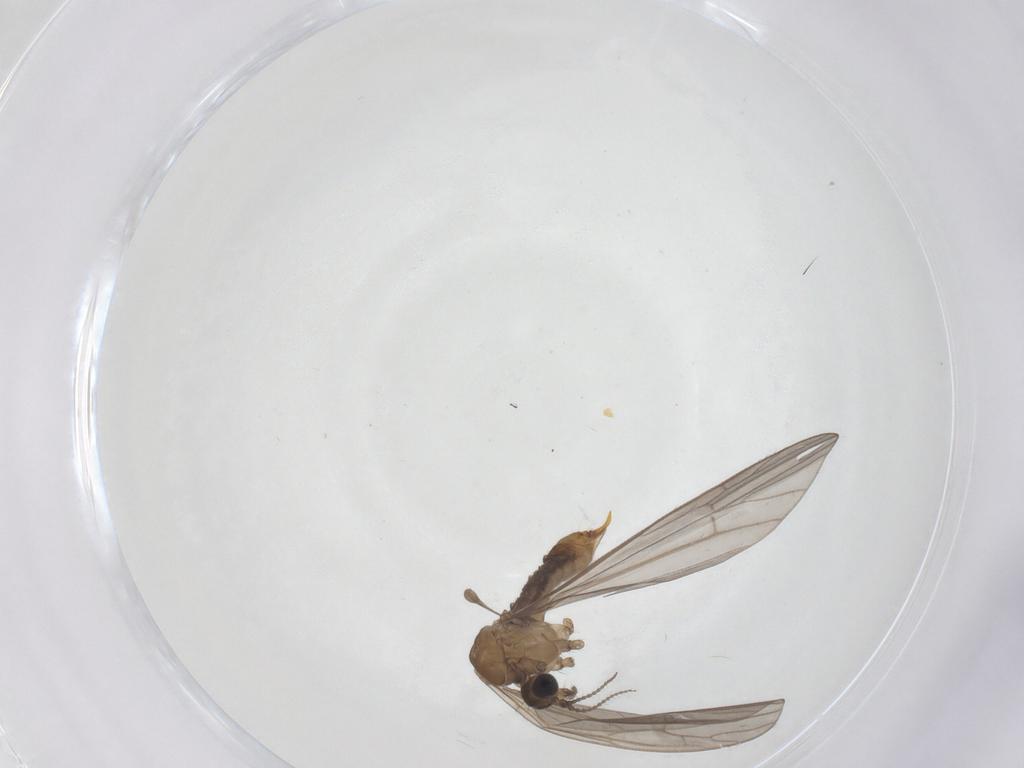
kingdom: Animalia
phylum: Arthropoda
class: Insecta
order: Diptera
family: Limoniidae
